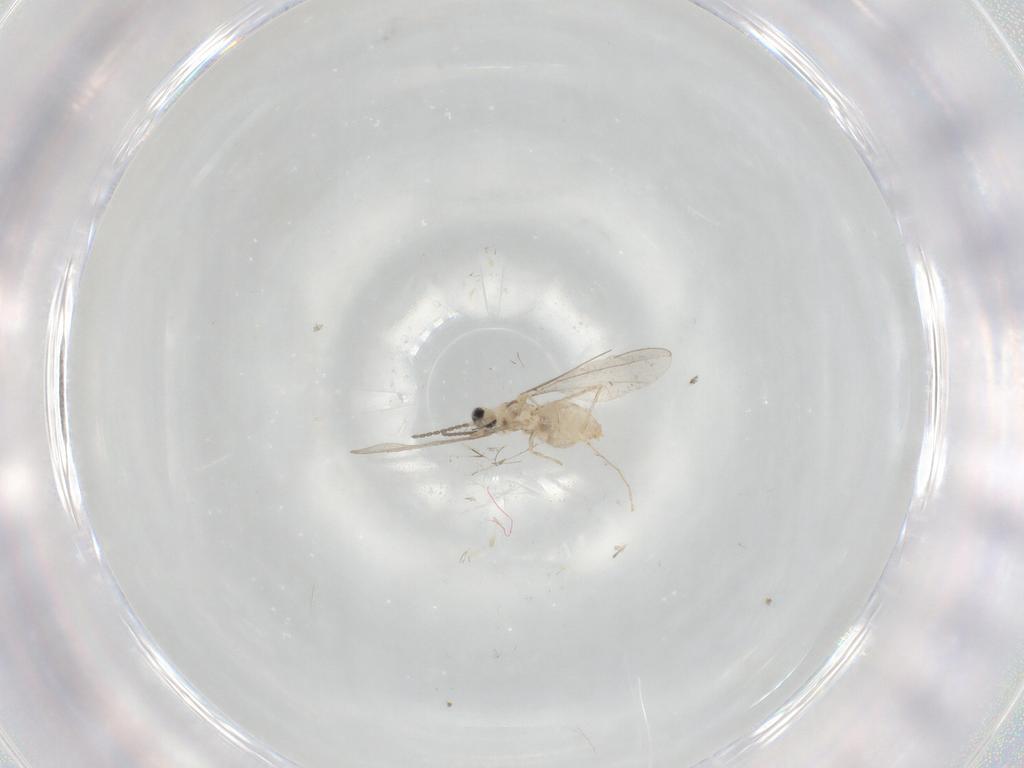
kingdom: Animalia
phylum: Arthropoda
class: Insecta
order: Diptera
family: Cecidomyiidae
